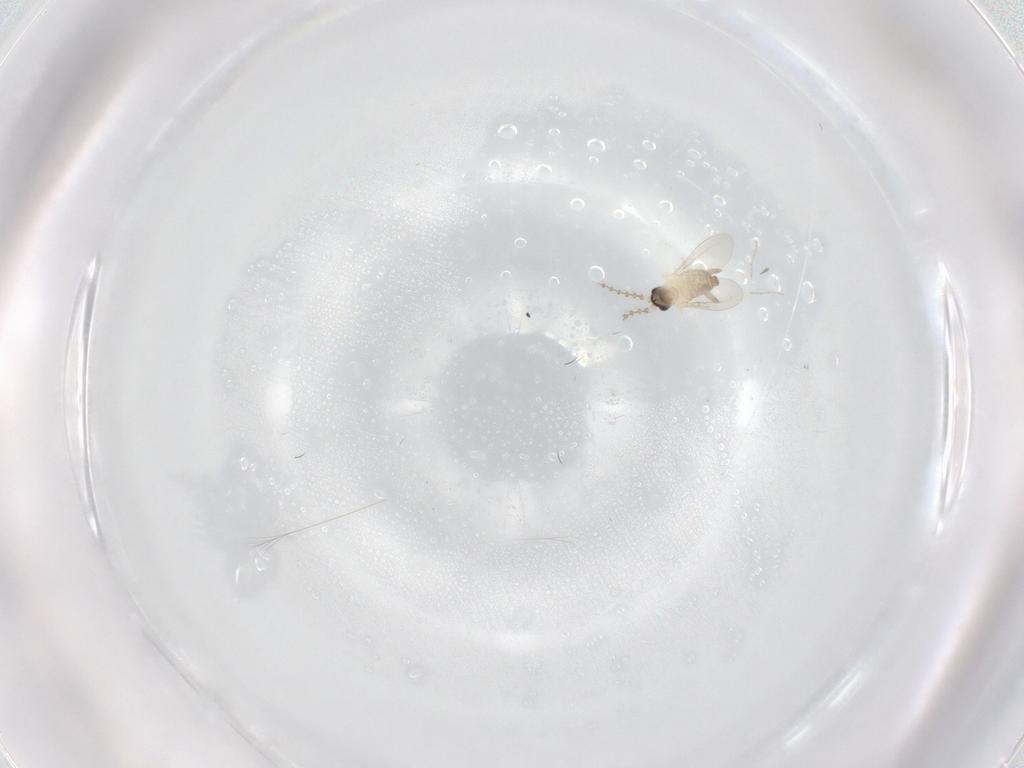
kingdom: Animalia
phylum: Arthropoda
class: Insecta
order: Diptera
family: Cecidomyiidae
